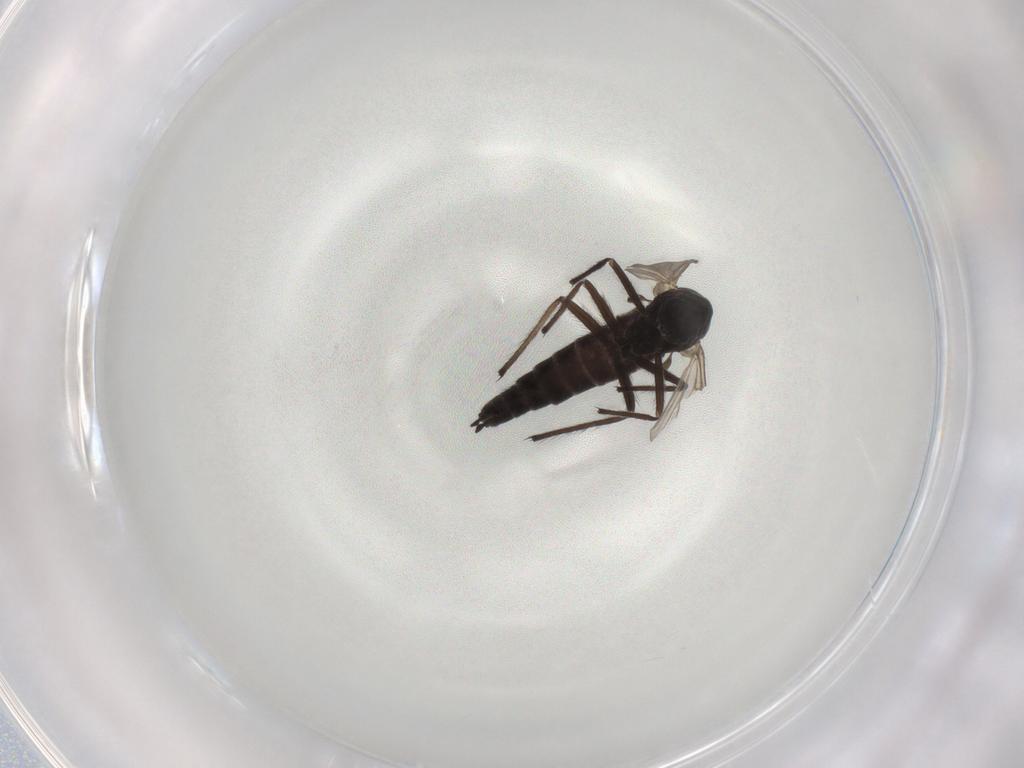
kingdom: Animalia
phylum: Arthropoda
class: Insecta
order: Diptera
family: Chironomidae
